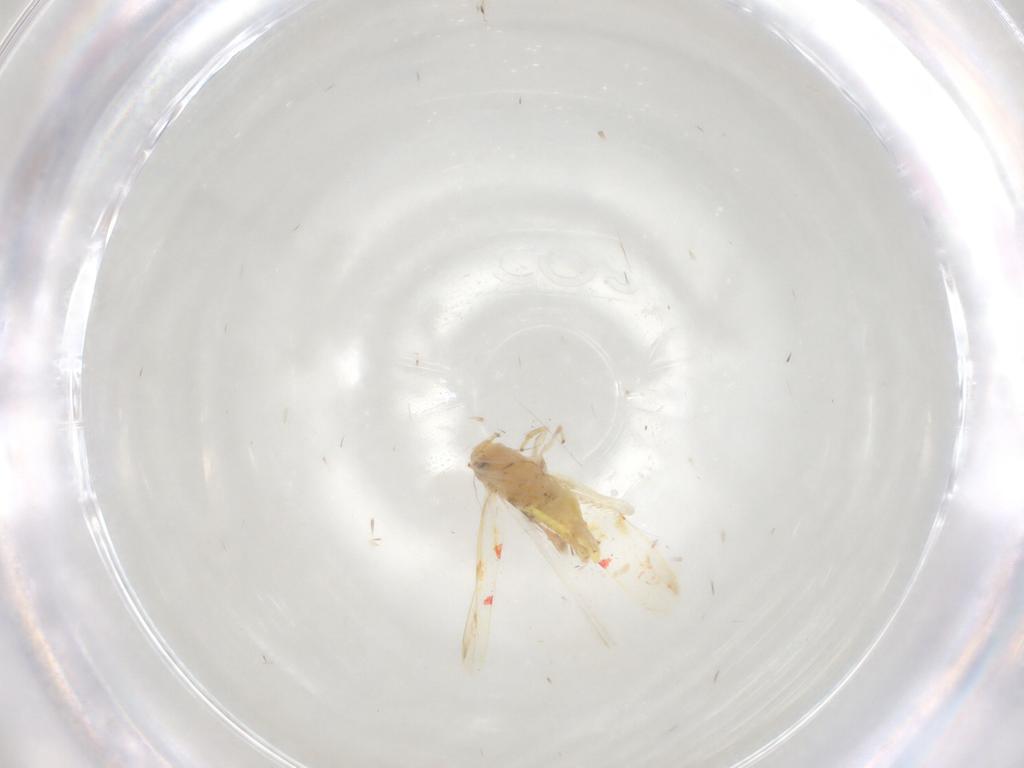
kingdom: Animalia
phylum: Arthropoda
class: Insecta
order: Hemiptera
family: Cicadellidae
